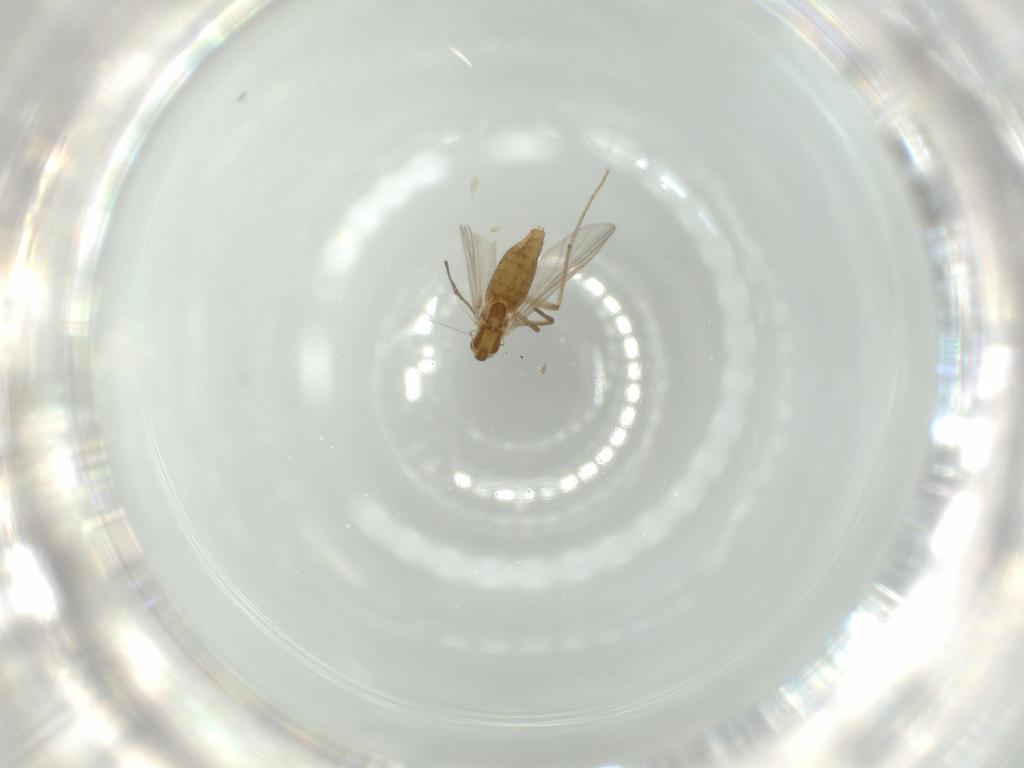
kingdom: Animalia
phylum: Arthropoda
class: Insecta
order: Diptera
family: Chironomidae
